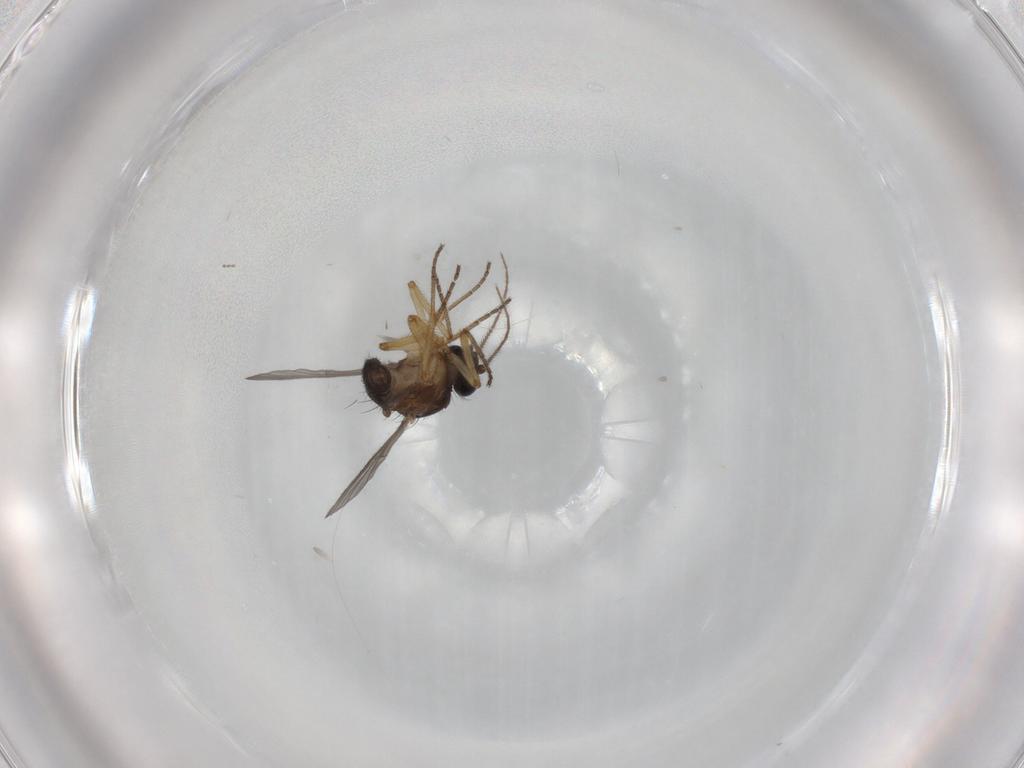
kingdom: Animalia
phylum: Arthropoda
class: Insecta
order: Diptera
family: Ceratopogonidae
